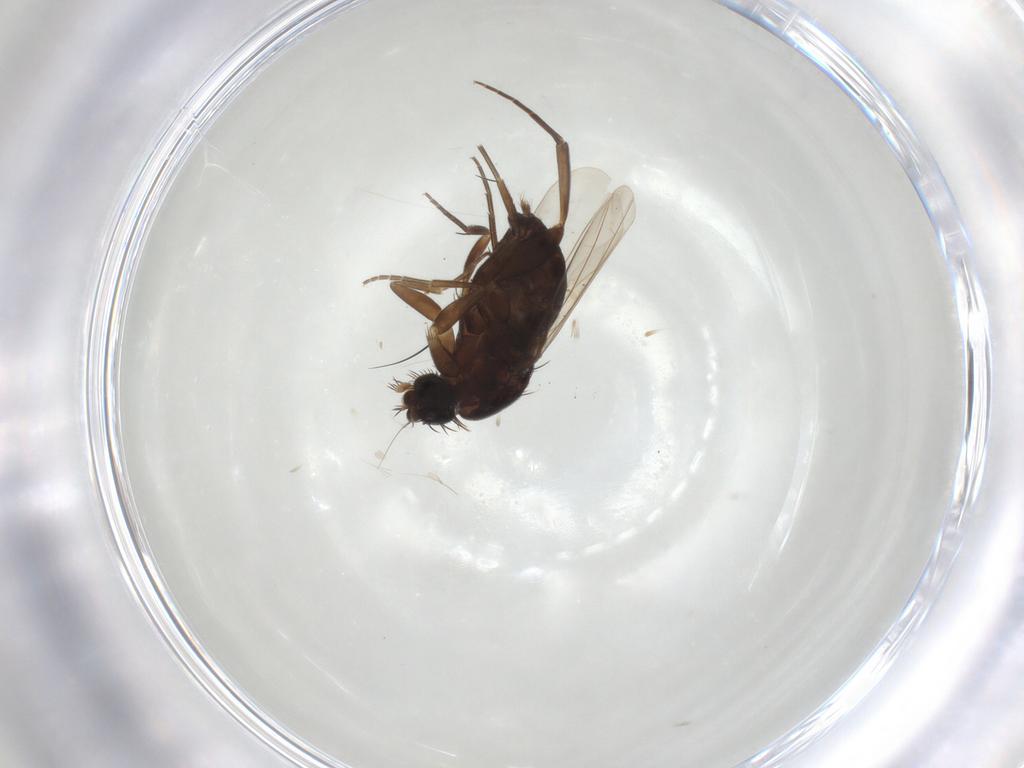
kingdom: Animalia
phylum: Arthropoda
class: Insecta
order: Diptera
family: Phoridae
